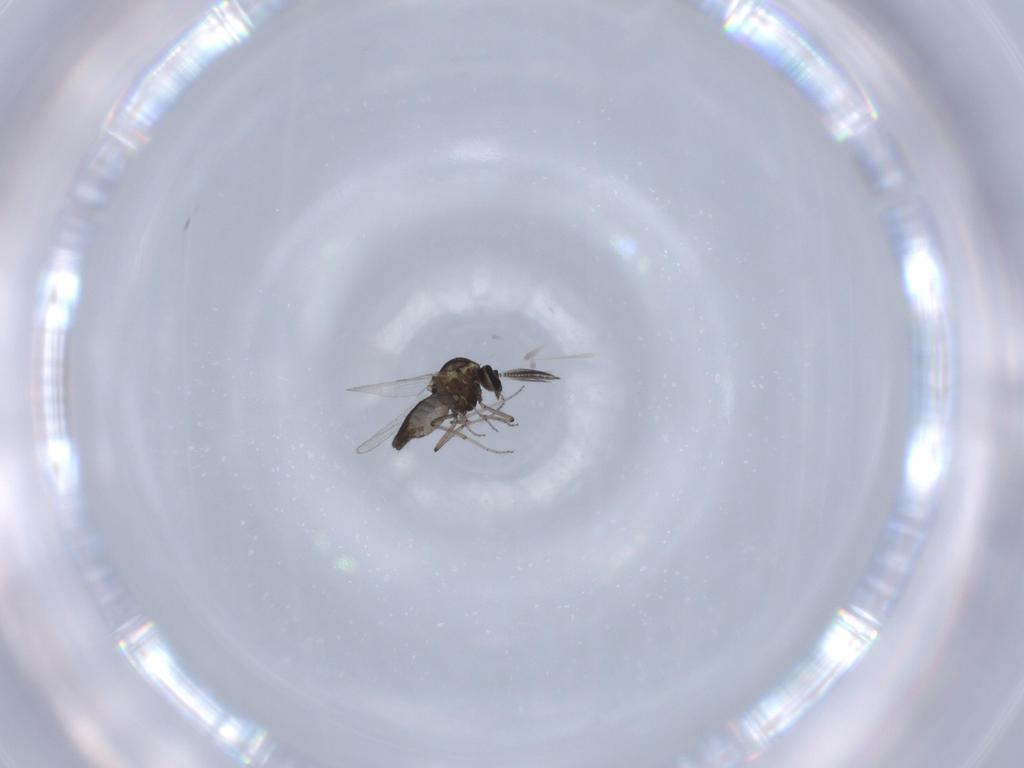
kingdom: Animalia
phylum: Arthropoda
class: Insecta
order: Diptera
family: Ceratopogonidae
